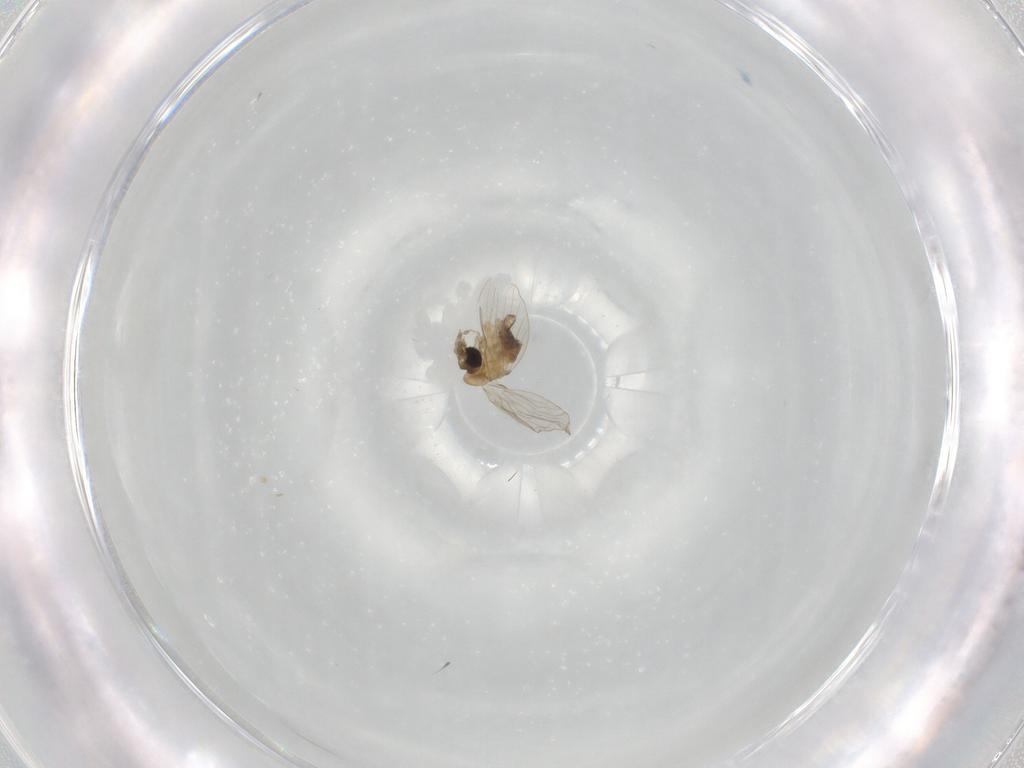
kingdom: Animalia
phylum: Arthropoda
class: Insecta
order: Diptera
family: Psychodidae
